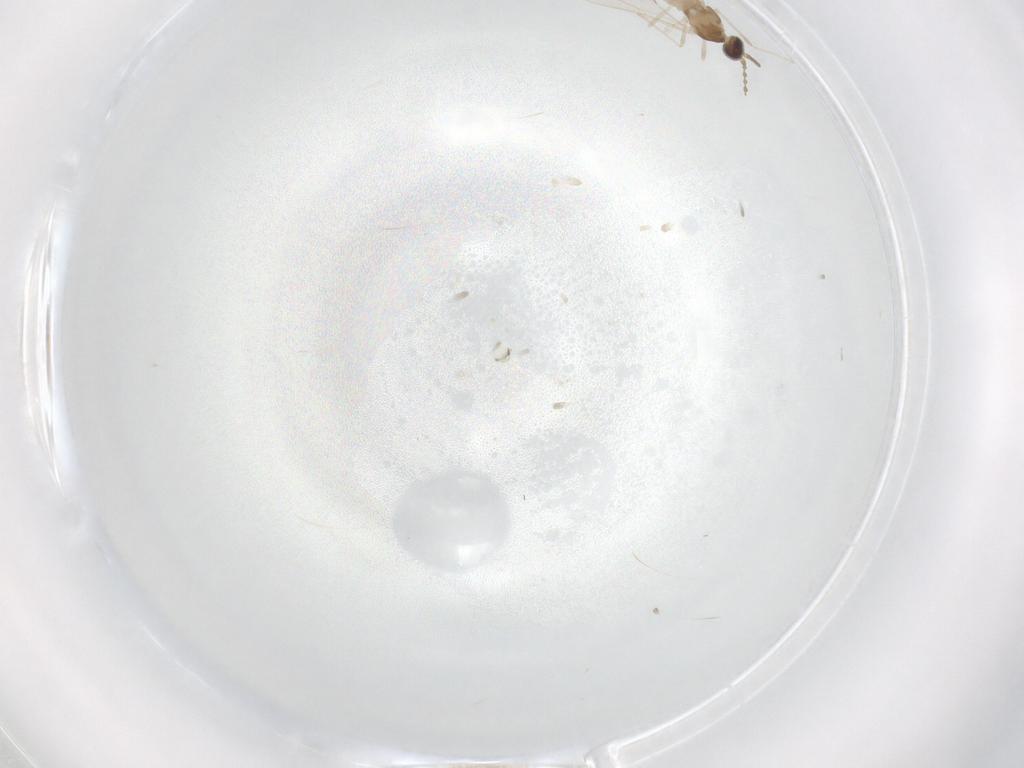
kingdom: Animalia
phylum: Arthropoda
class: Insecta
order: Diptera
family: Cecidomyiidae
